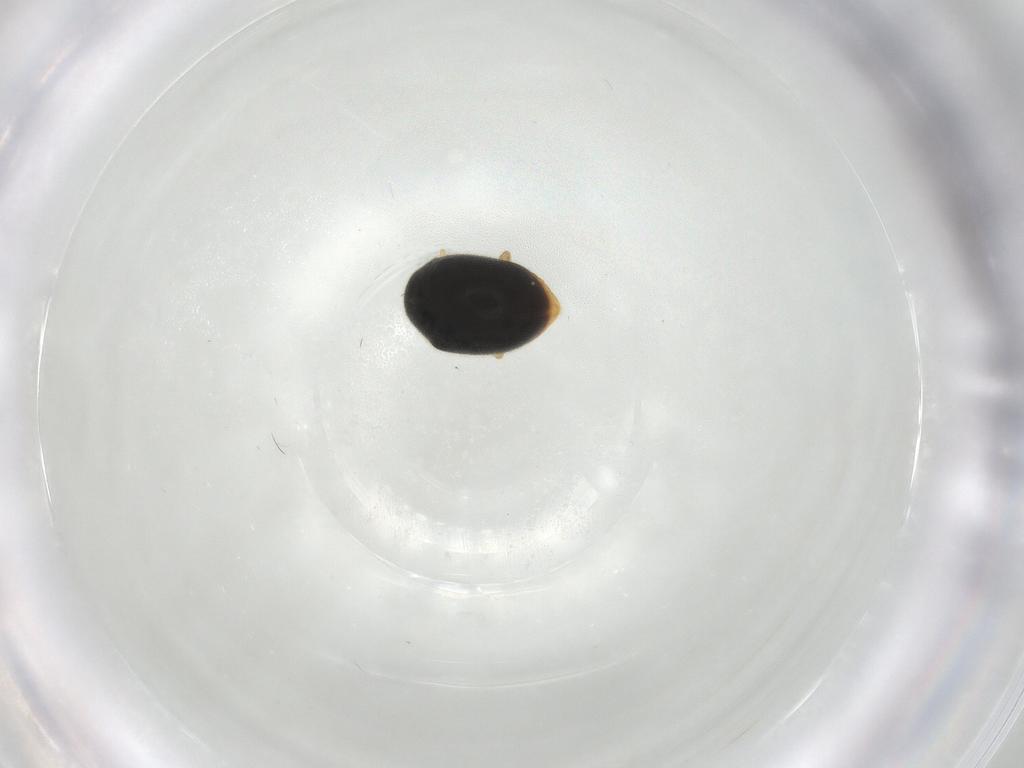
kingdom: Animalia
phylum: Arthropoda
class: Insecta
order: Coleoptera
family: Coccinellidae
